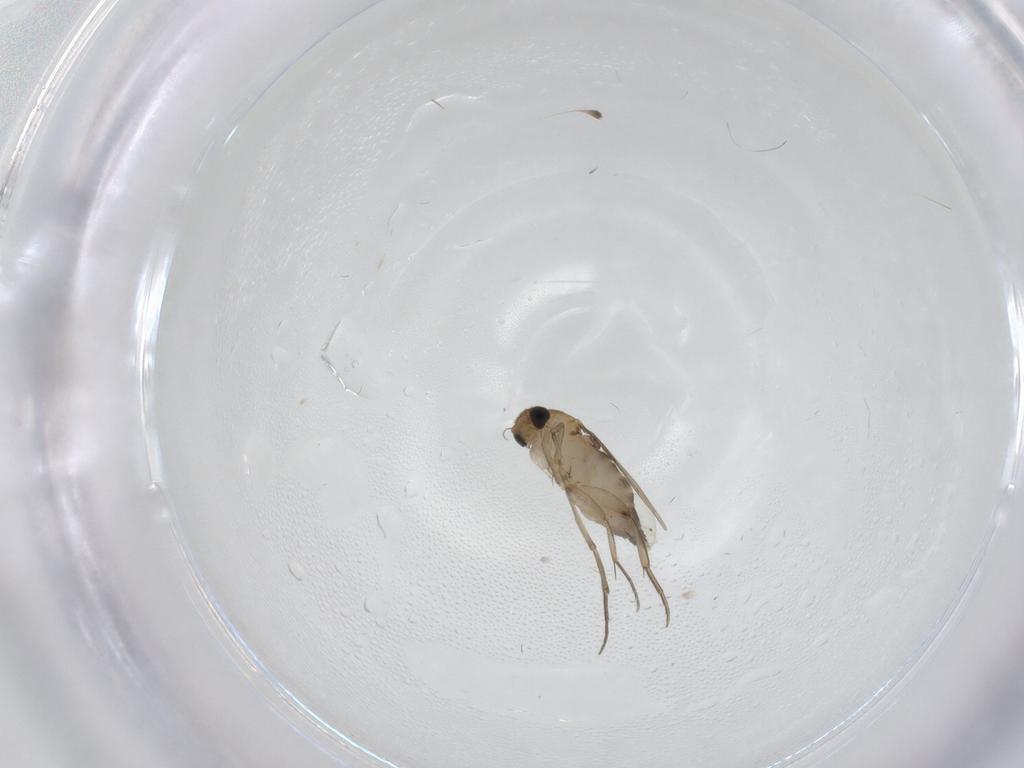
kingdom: Animalia
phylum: Arthropoda
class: Insecta
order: Diptera
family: Phoridae
